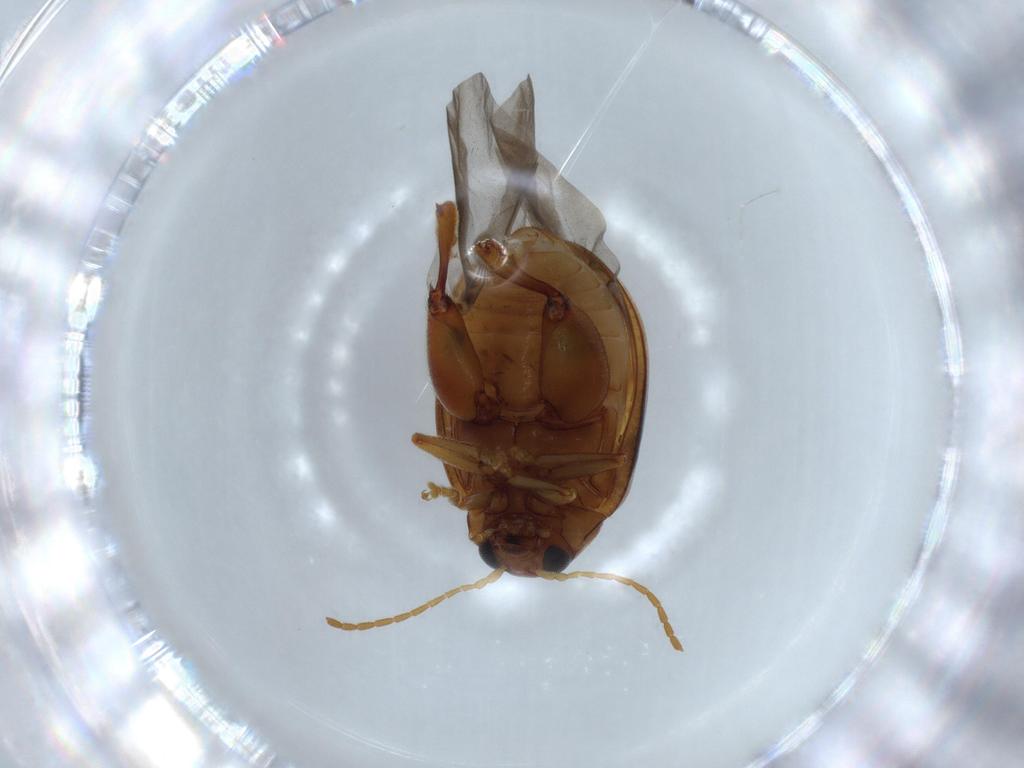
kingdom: Animalia
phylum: Arthropoda
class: Insecta
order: Coleoptera
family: Chrysomelidae
